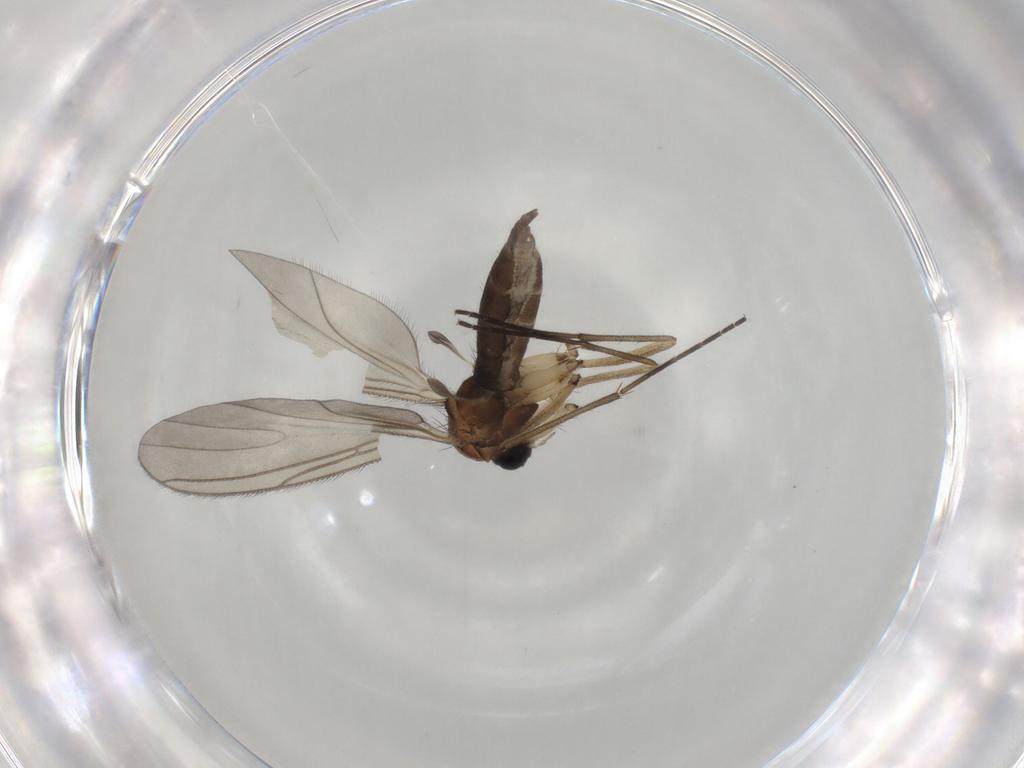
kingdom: Animalia
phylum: Arthropoda
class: Insecta
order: Diptera
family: Sciaridae
